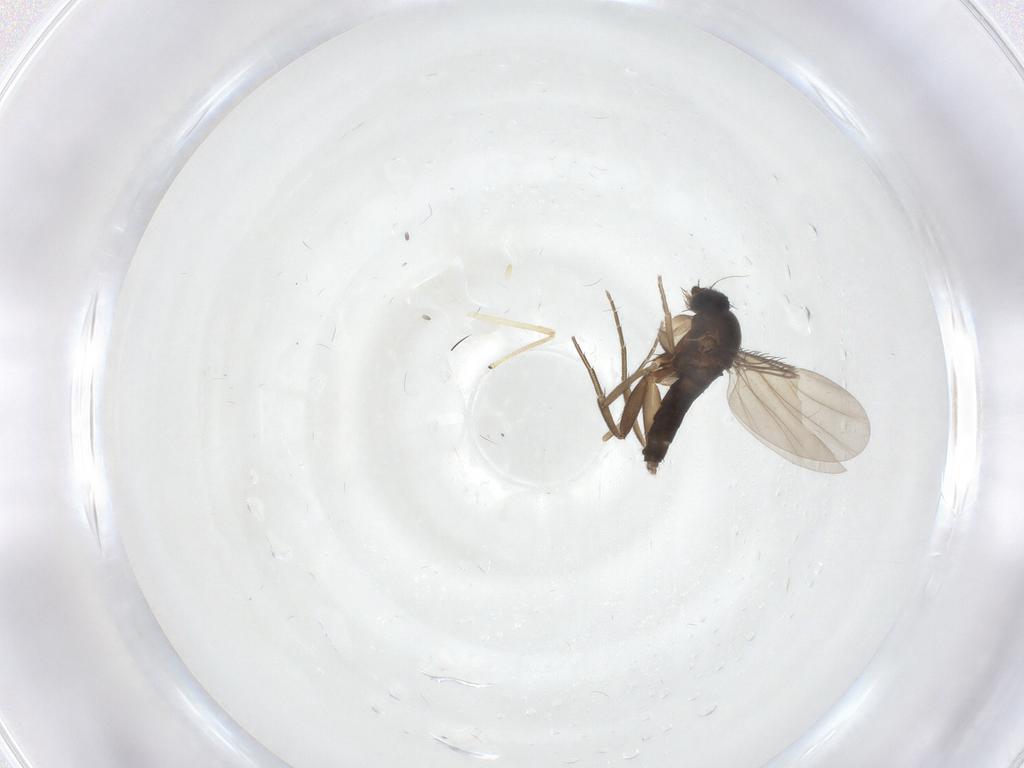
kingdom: Animalia
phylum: Arthropoda
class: Insecta
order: Diptera
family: Phoridae
